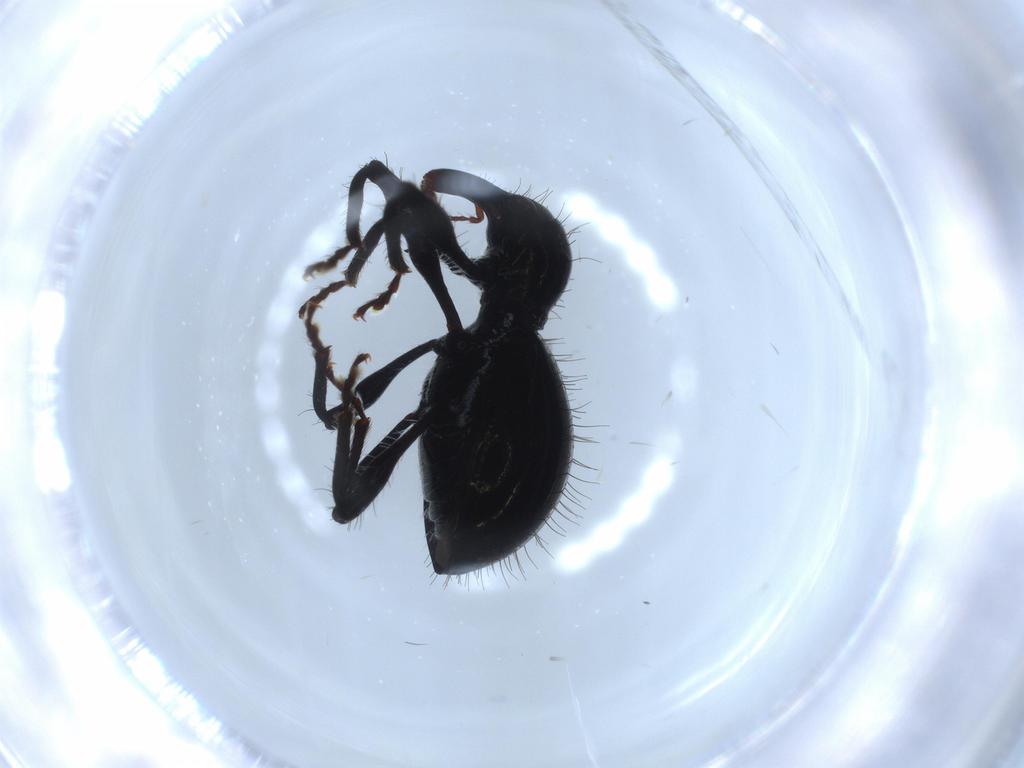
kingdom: Animalia
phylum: Arthropoda
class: Insecta
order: Coleoptera
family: Curculionidae
